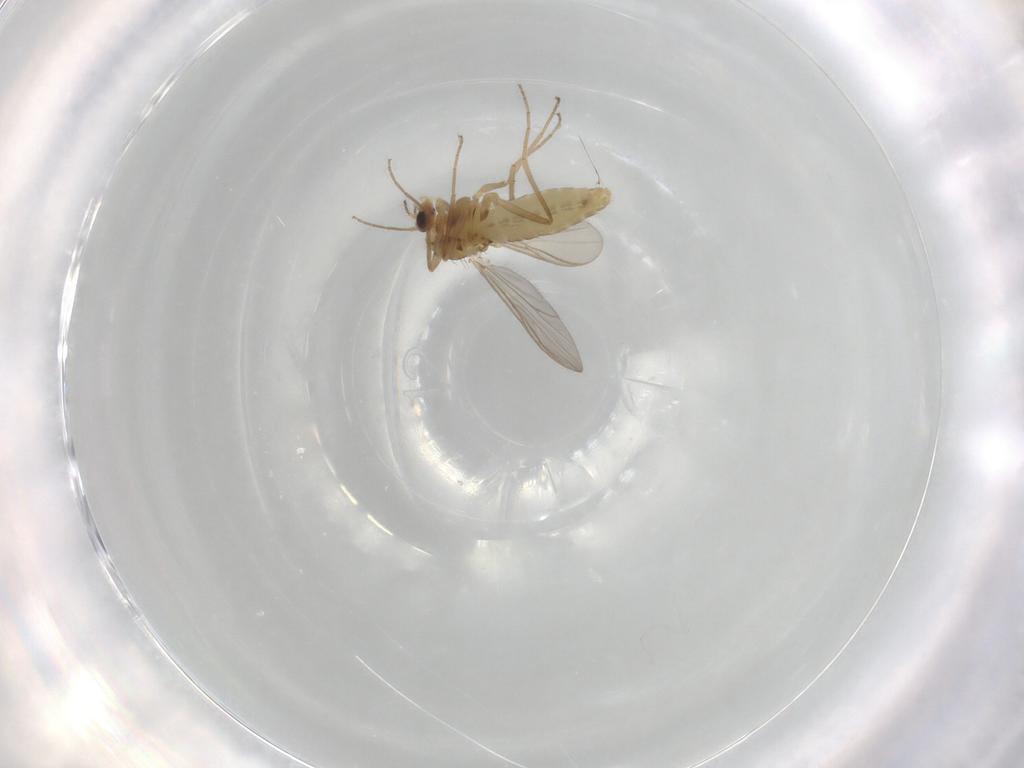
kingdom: Animalia
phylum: Arthropoda
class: Insecta
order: Diptera
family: Chironomidae
